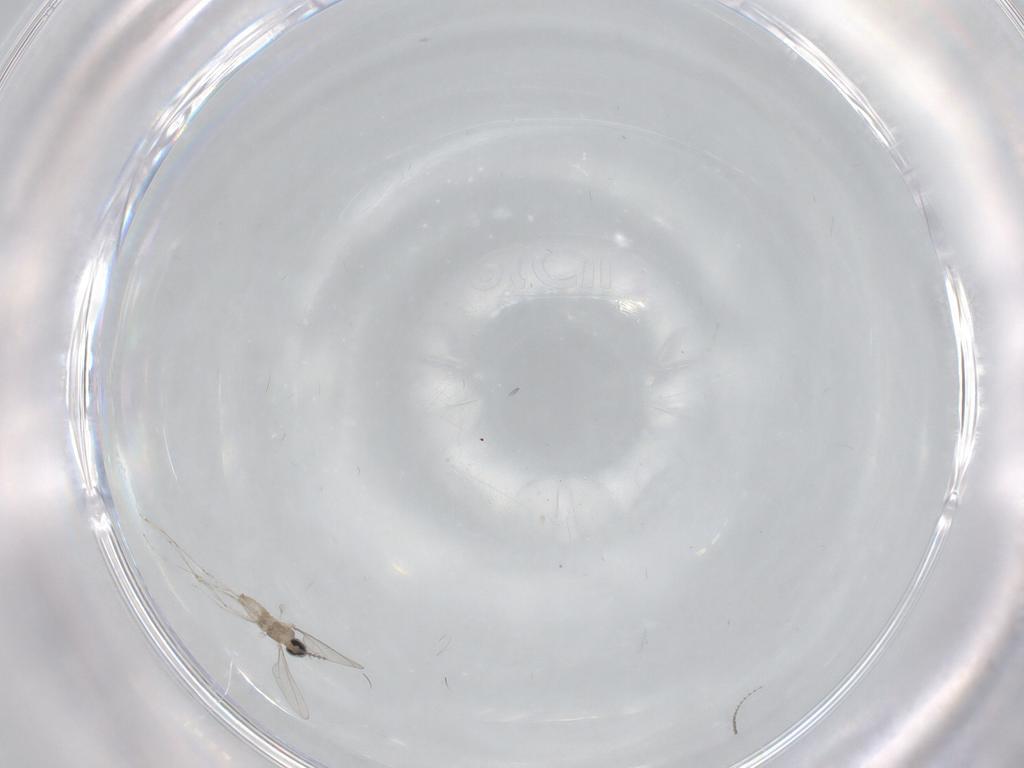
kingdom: Animalia
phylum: Arthropoda
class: Insecta
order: Diptera
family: Cecidomyiidae
